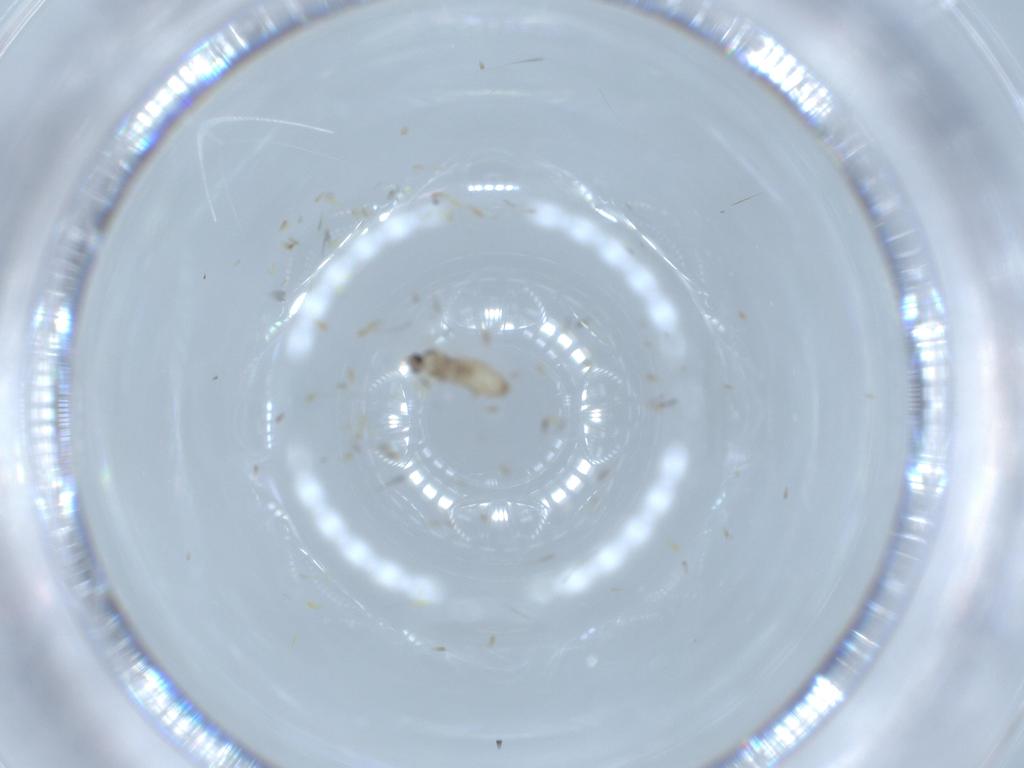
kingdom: Animalia
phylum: Arthropoda
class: Insecta
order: Diptera
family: Cecidomyiidae
